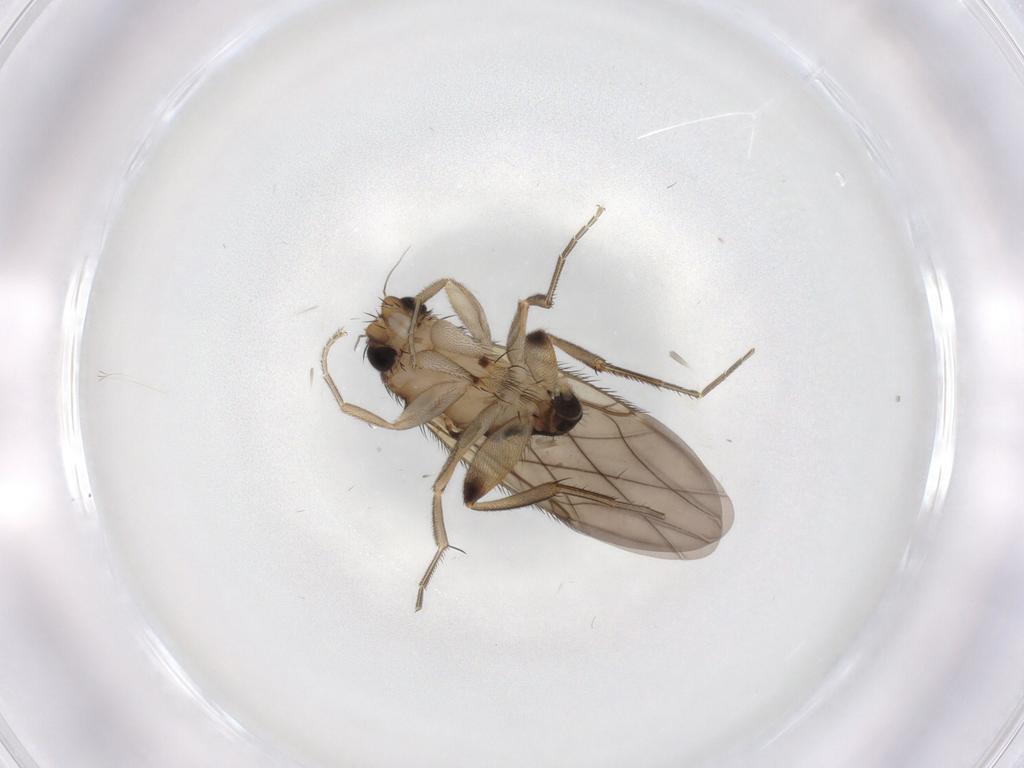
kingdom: Animalia
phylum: Arthropoda
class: Insecta
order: Diptera
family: Phoridae
